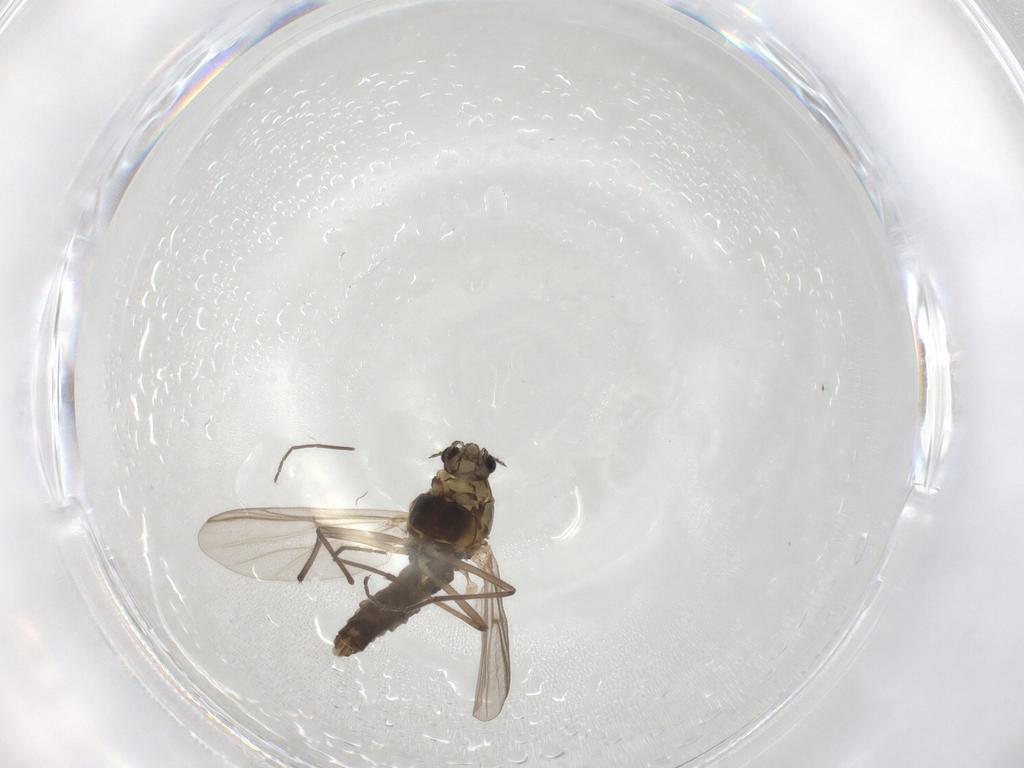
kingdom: Animalia
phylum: Arthropoda
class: Insecta
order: Diptera
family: Chironomidae
